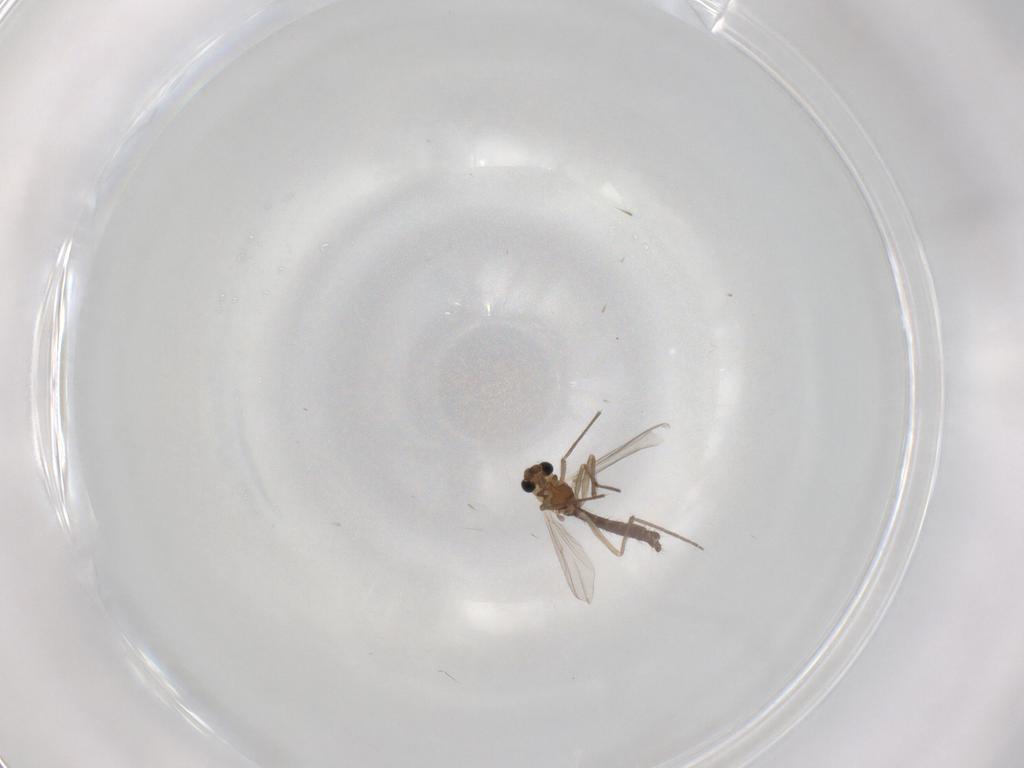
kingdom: Animalia
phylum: Arthropoda
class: Insecta
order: Diptera
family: Chironomidae
